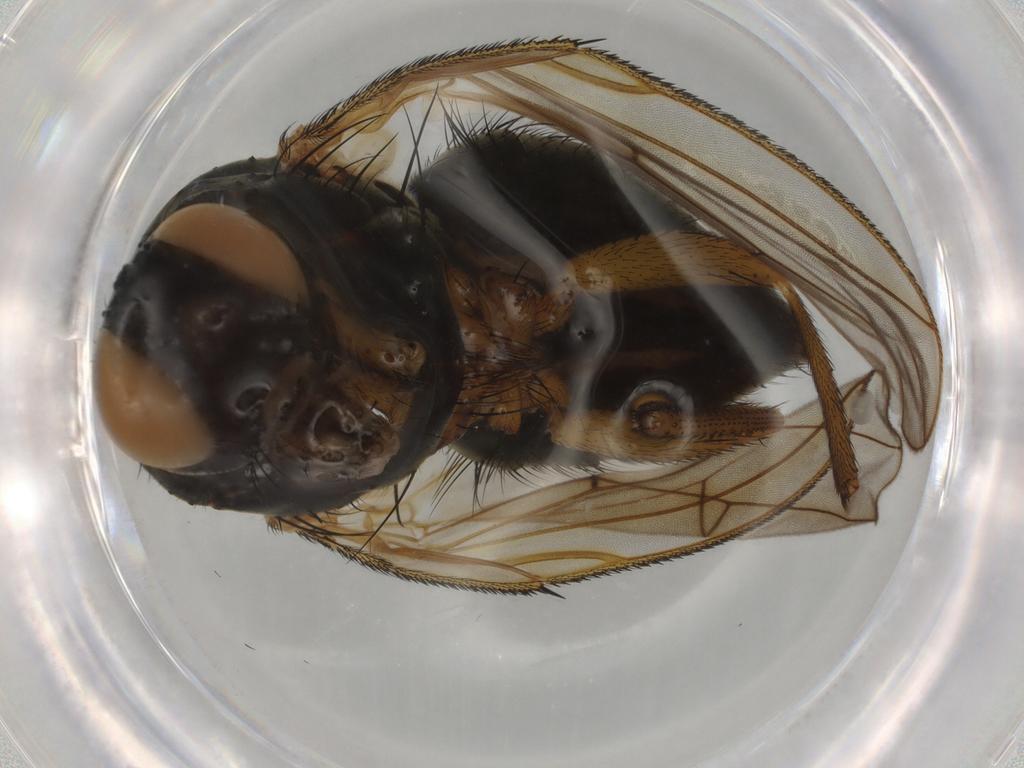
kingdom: Animalia
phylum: Arthropoda
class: Insecta
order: Diptera
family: Muscidae
